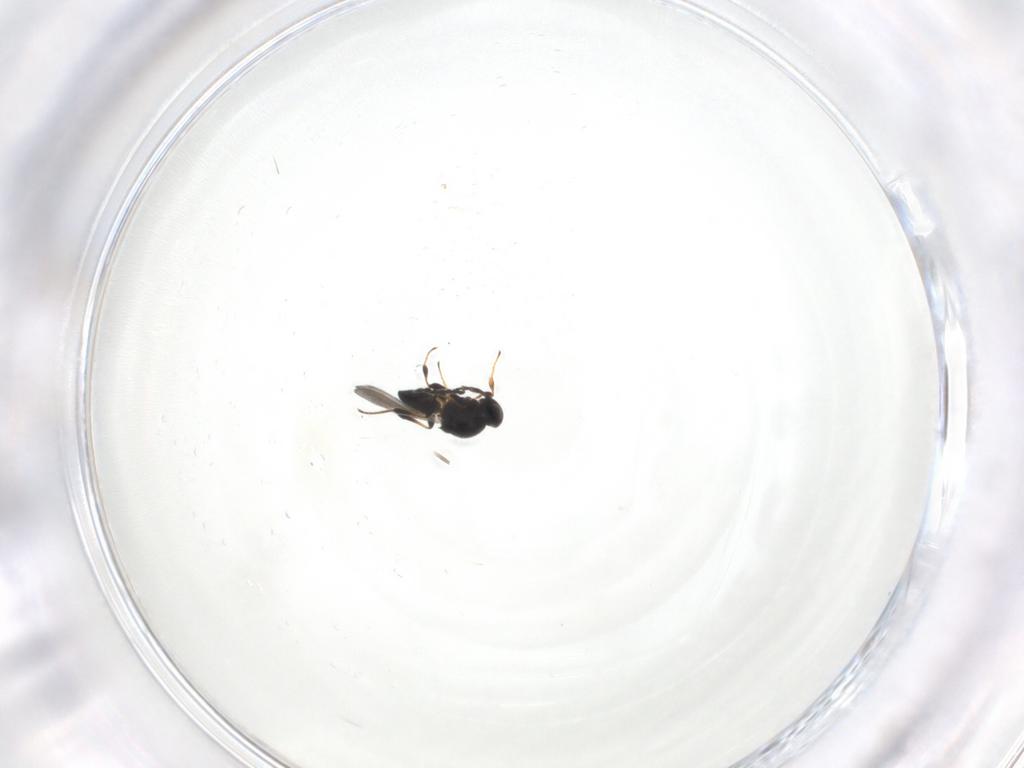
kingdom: Animalia
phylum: Arthropoda
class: Insecta
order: Hymenoptera
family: Platygastridae
